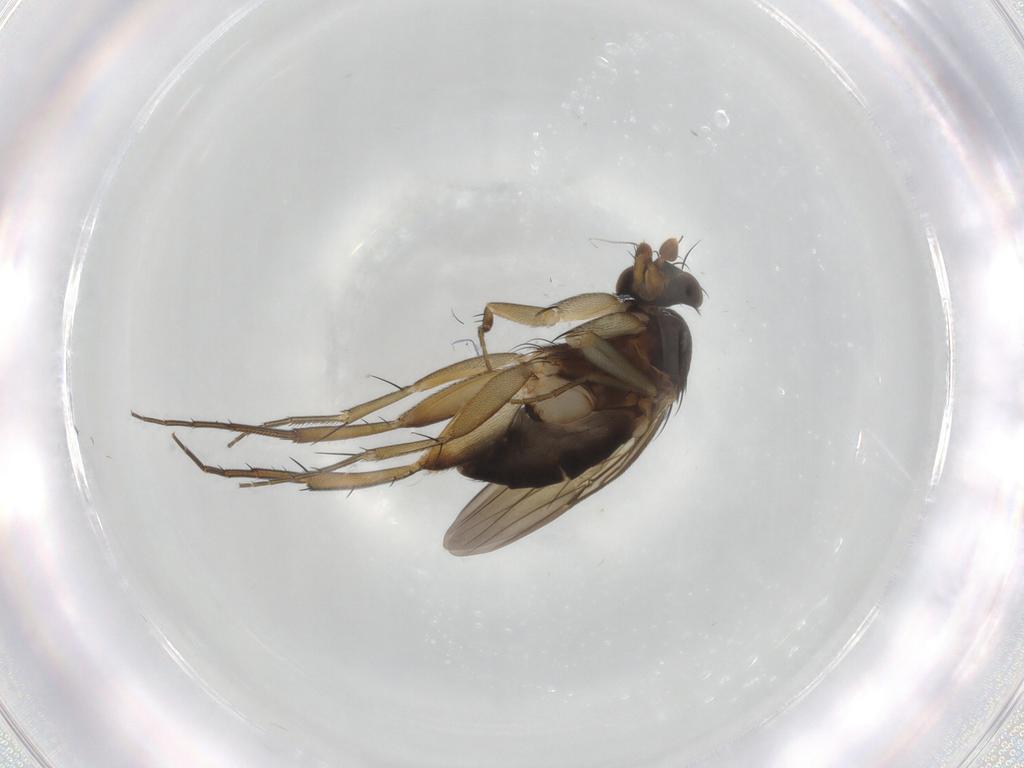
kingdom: Animalia
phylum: Arthropoda
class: Insecta
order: Diptera
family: Phoridae
